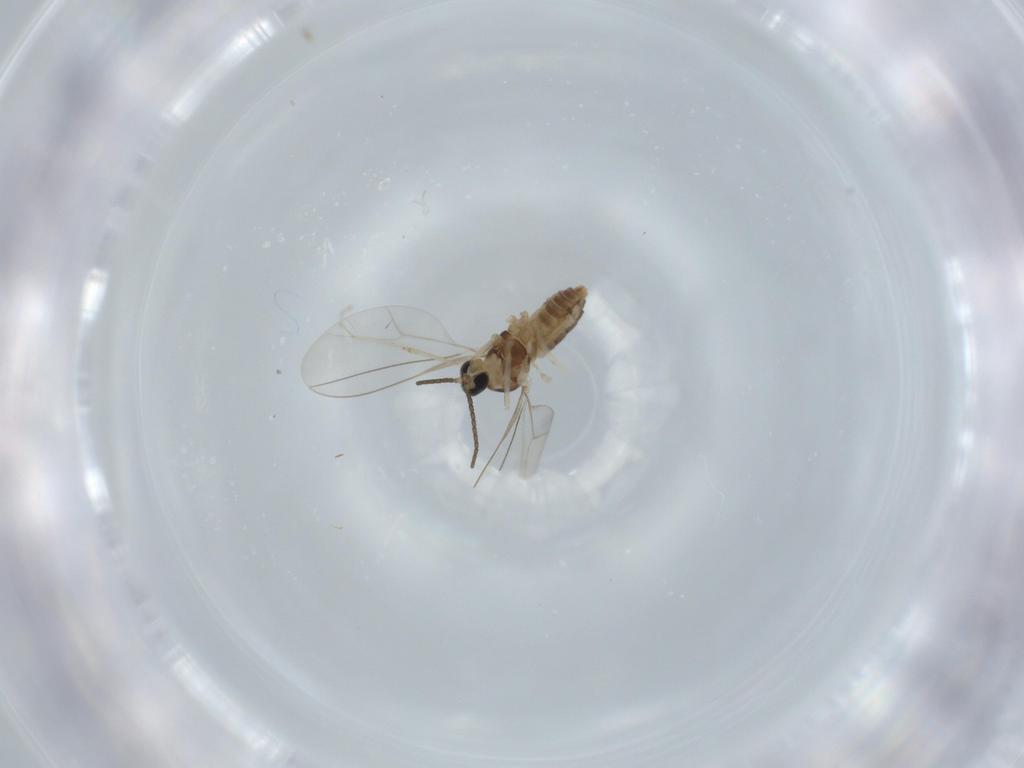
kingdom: Animalia
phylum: Arthropoda
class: Insecta
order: Diptera
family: Cecidomyiidae
